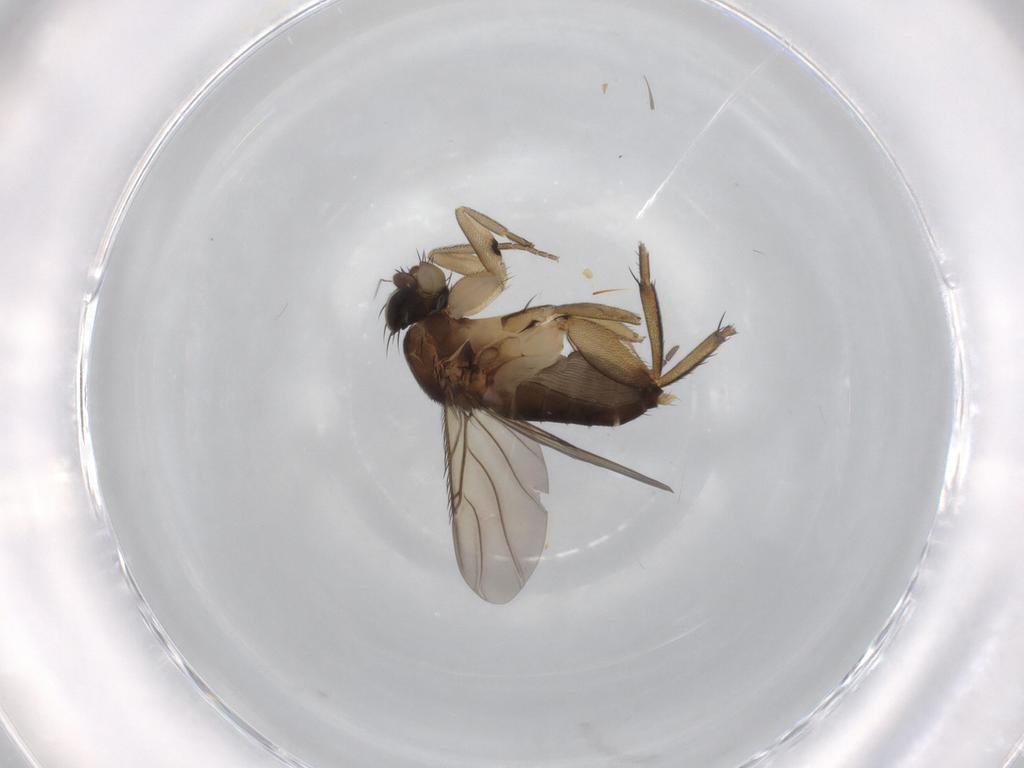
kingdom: Animalia
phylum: Arthropoda
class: Insecta
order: Diptera
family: Phoridae
